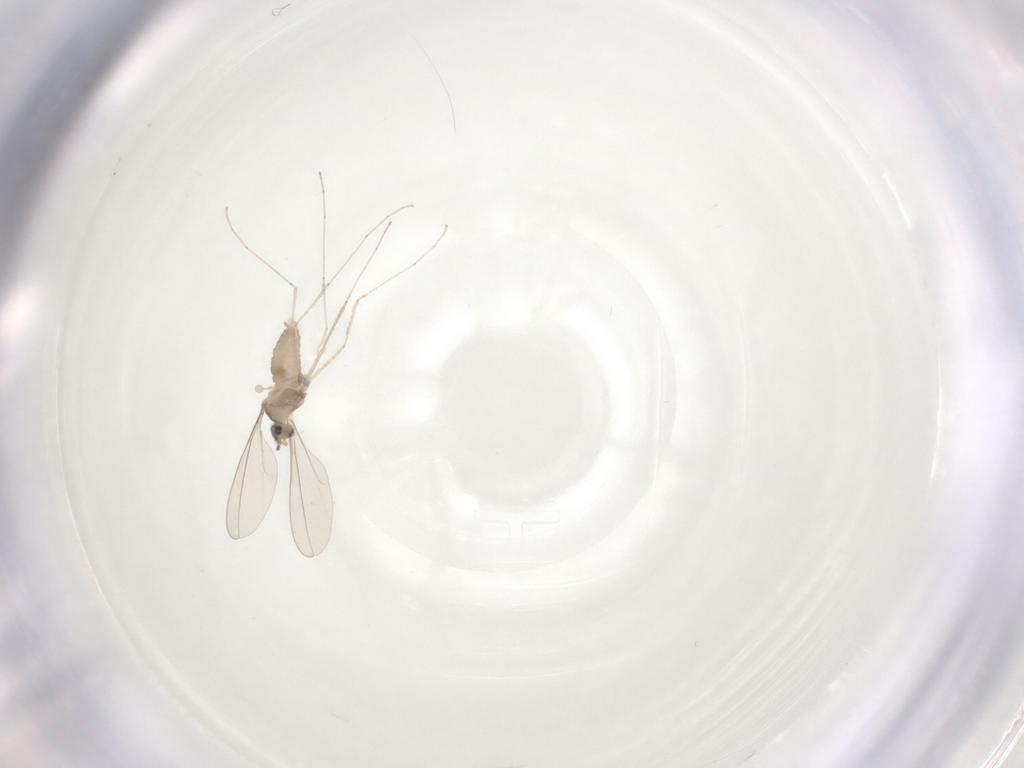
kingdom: Animalia
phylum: Arthropoda
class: Insecta
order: Diptera
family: Cecidomyiidae
